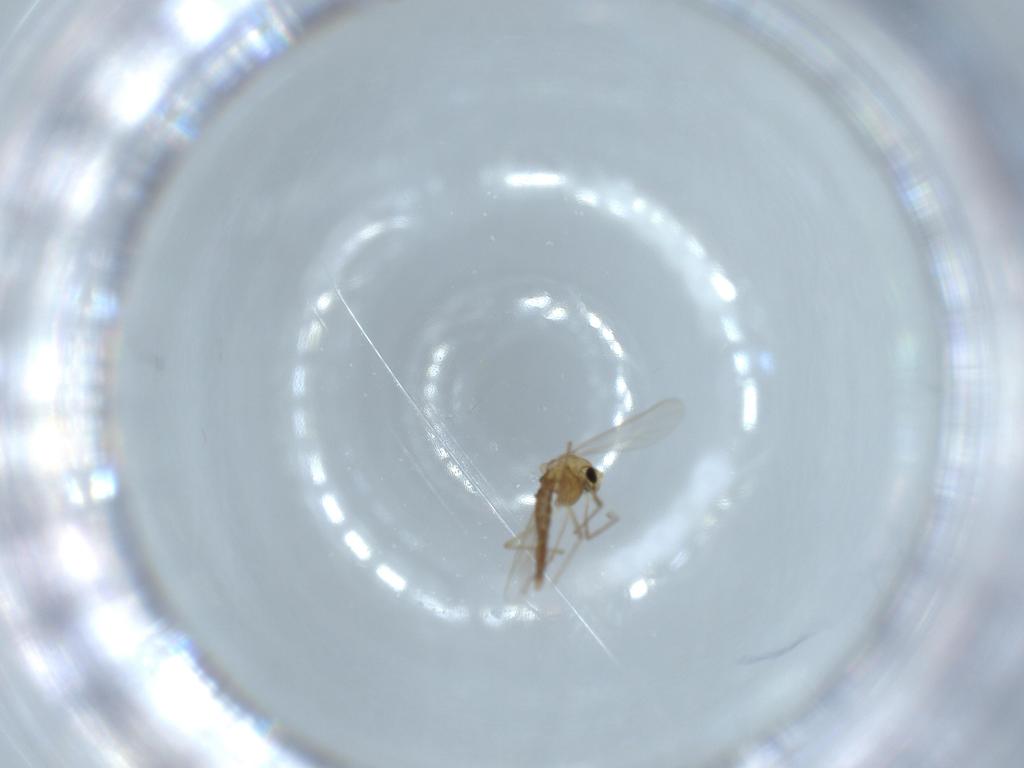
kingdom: Animalia
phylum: Arthropoda
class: Insecta
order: Diptera
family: Chironomidae
